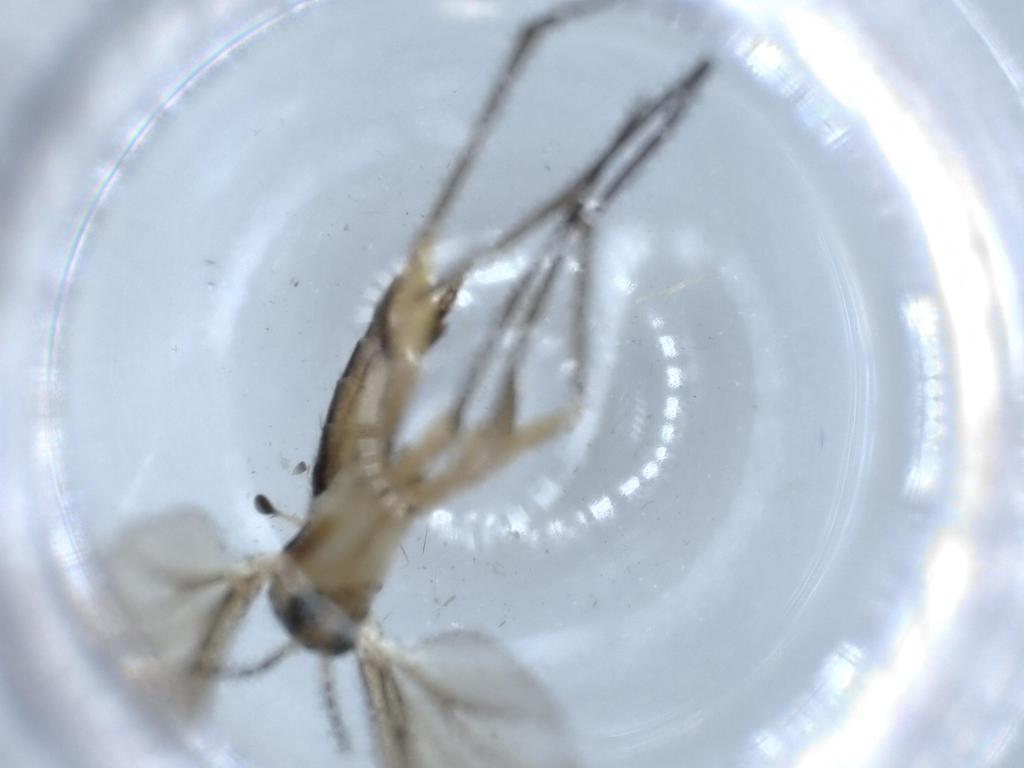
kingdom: Animalia
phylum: Arthropoda
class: Insecta
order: Diptera
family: Sciaridae
